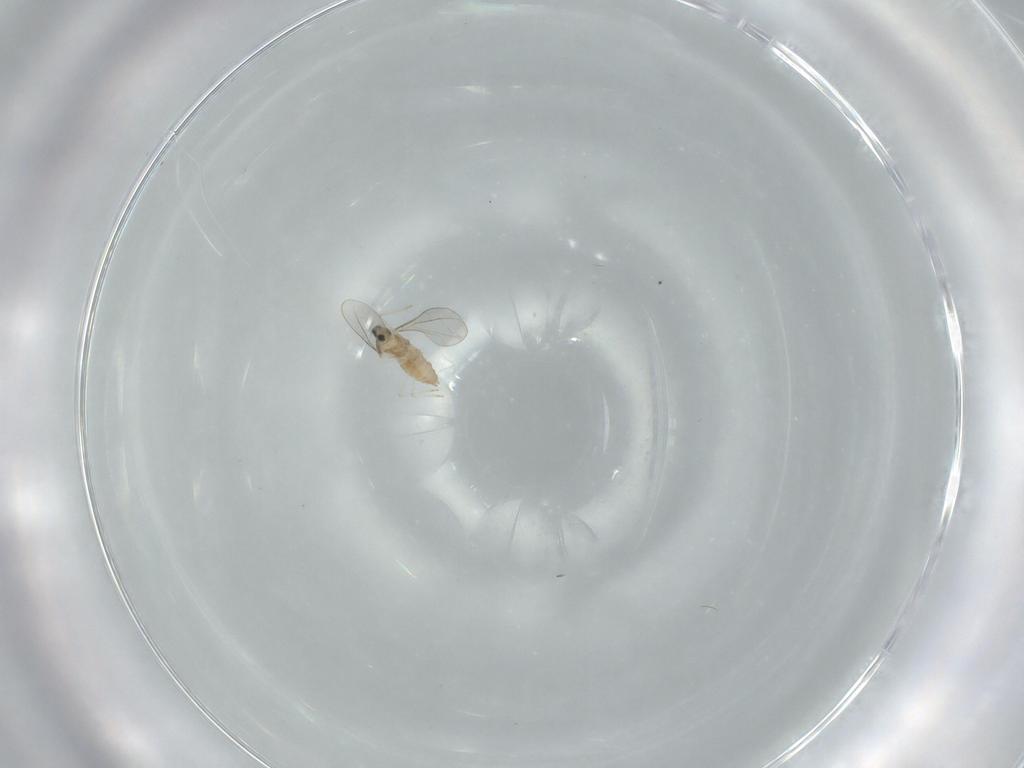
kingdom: Animalia
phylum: Arthropoda
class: Insecta
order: Diptera
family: Cecidomyiidae
